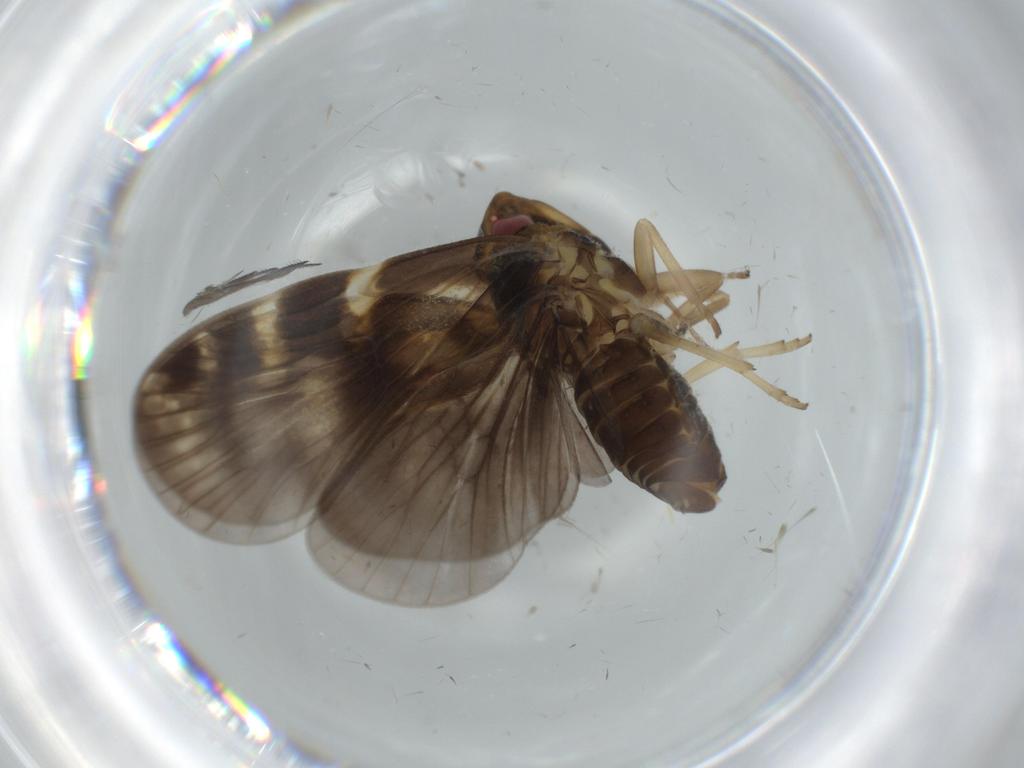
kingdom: Animalia
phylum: Arthropoda
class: Insecta
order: Hemiptera
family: Cixiidae
